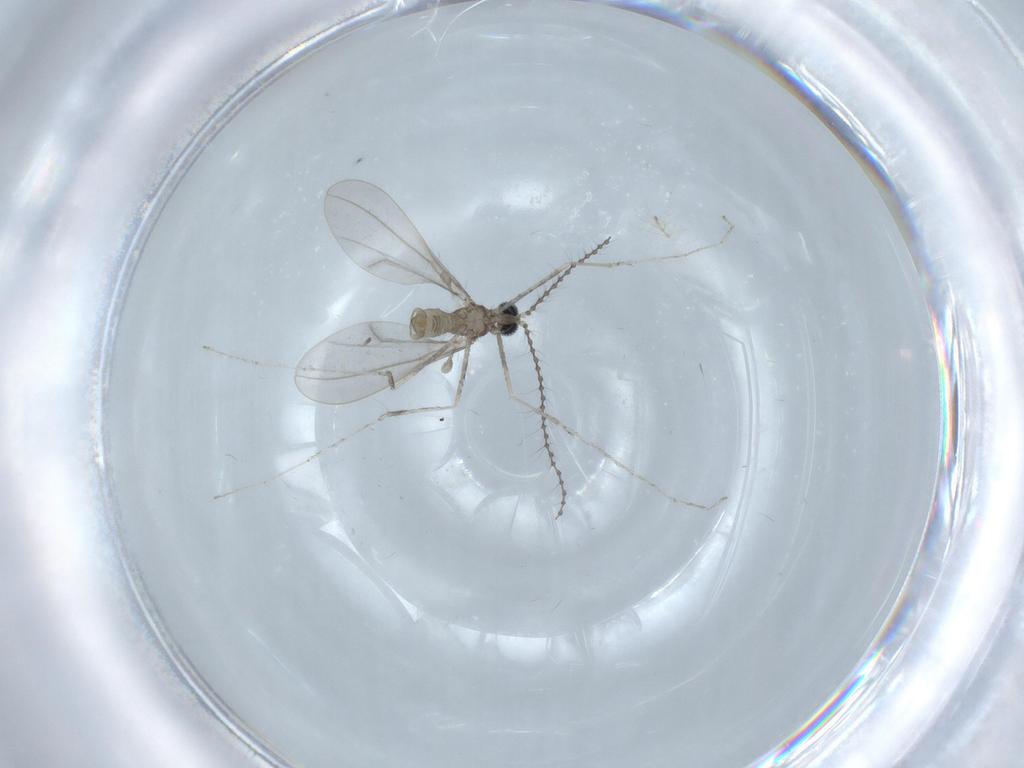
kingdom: Animalia
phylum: Arthropoda
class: Insecta
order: Diptera
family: Cecidomyiidae
